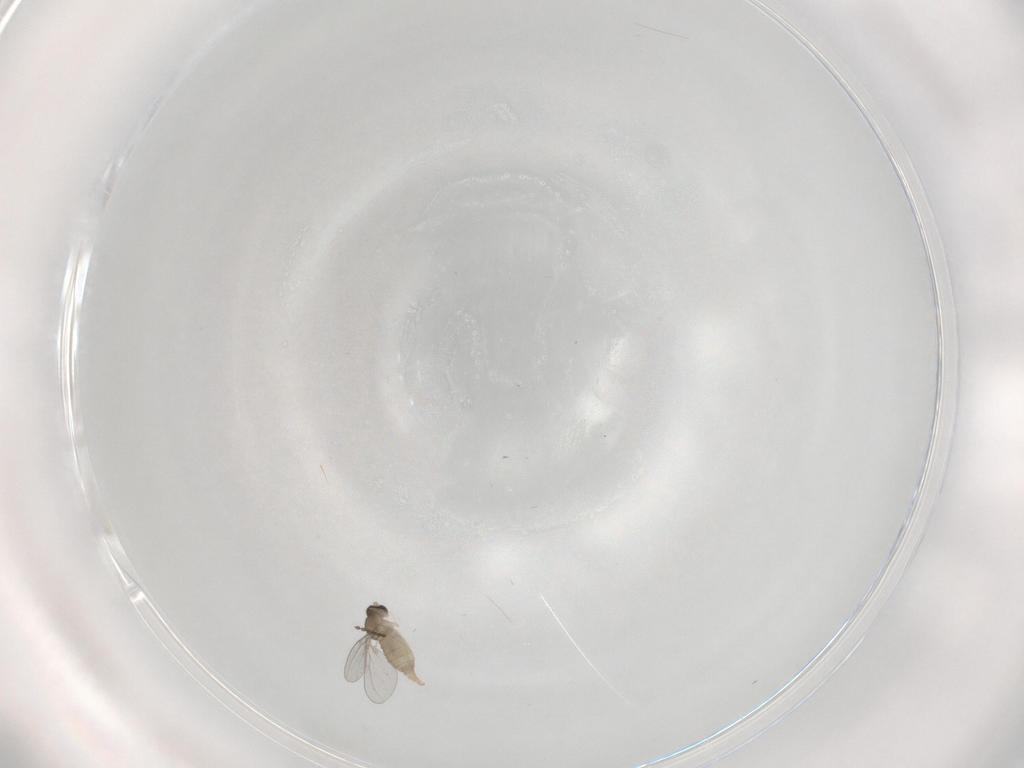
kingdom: Animalia
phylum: Arthropoda
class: Insecta
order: Diptera
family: Cecidomyiidae
